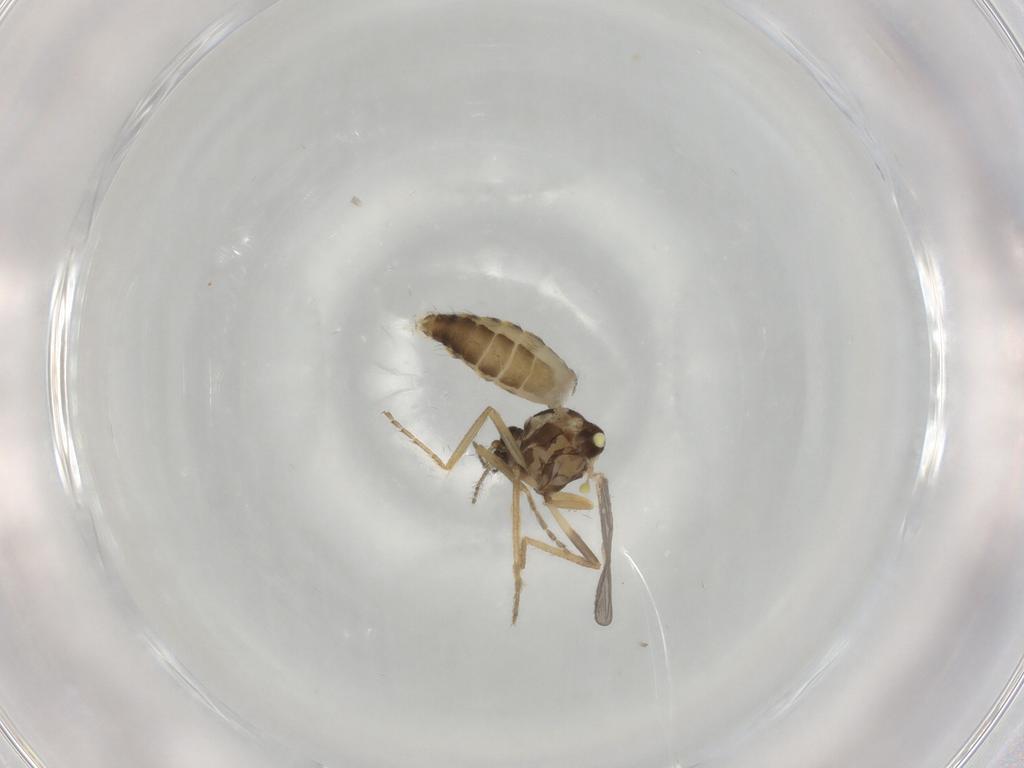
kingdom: Animalia
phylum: Arthropoda
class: Insecta
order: Diptera
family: Ceratopogonidae
